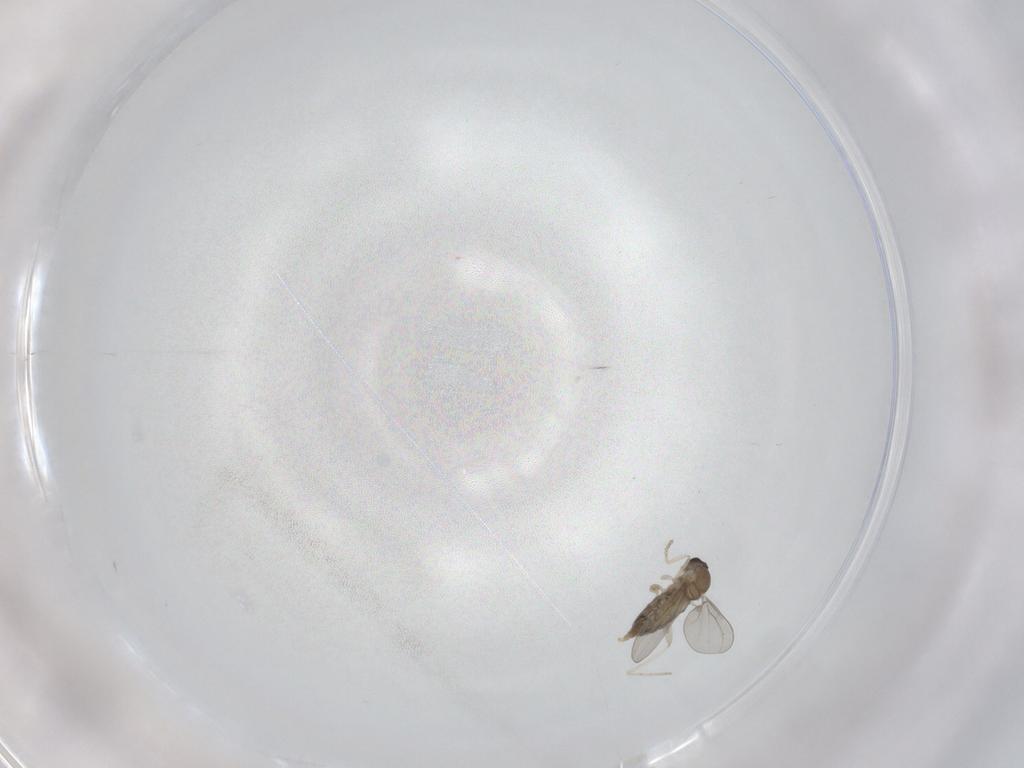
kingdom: Animalia
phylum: Arthropoda
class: Insecta
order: Diptera
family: Cecidomyiidae
